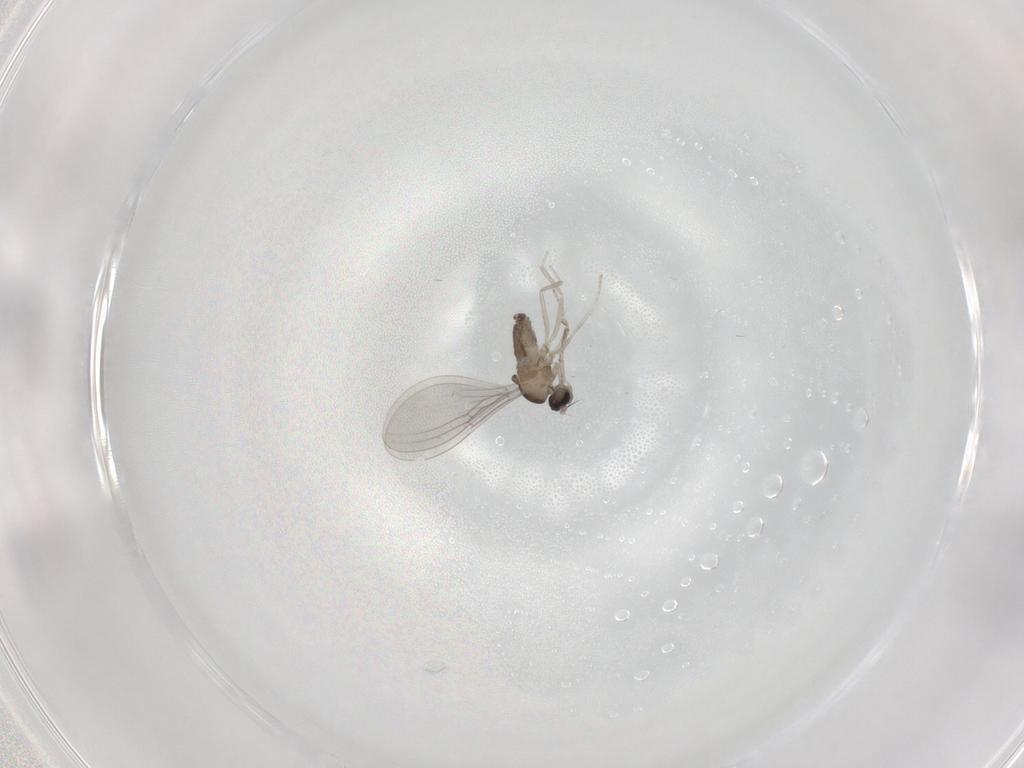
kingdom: Animalia
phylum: Arthropoda
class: Insecta
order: Diptera
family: Cecidomyiidae
